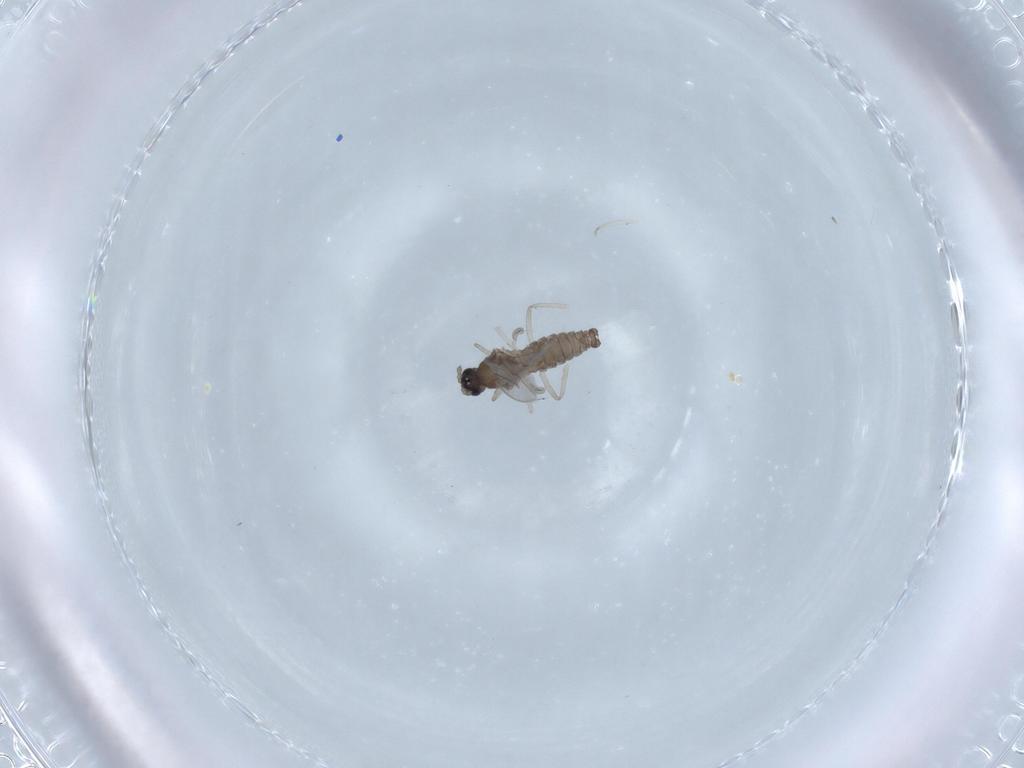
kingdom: Animalia
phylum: Arthropoda
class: Insecta
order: Diptera
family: Cecidomyiidae
